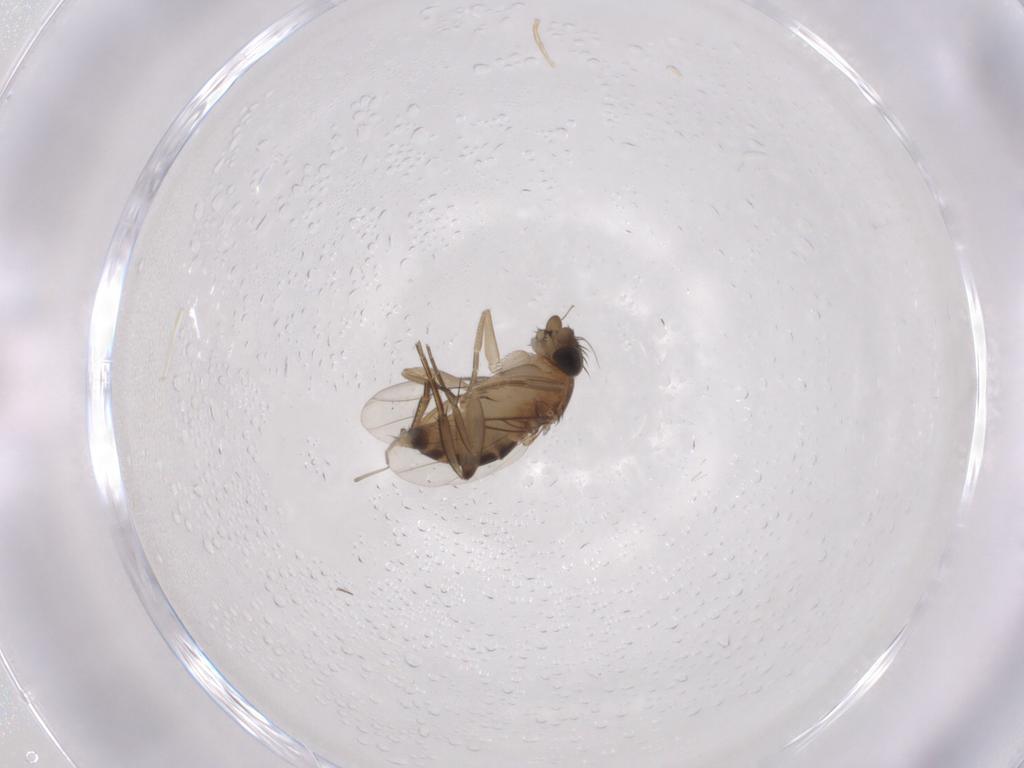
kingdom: Animalia
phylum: Arthropoda
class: Insecta
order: Diptera
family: Phoridae
